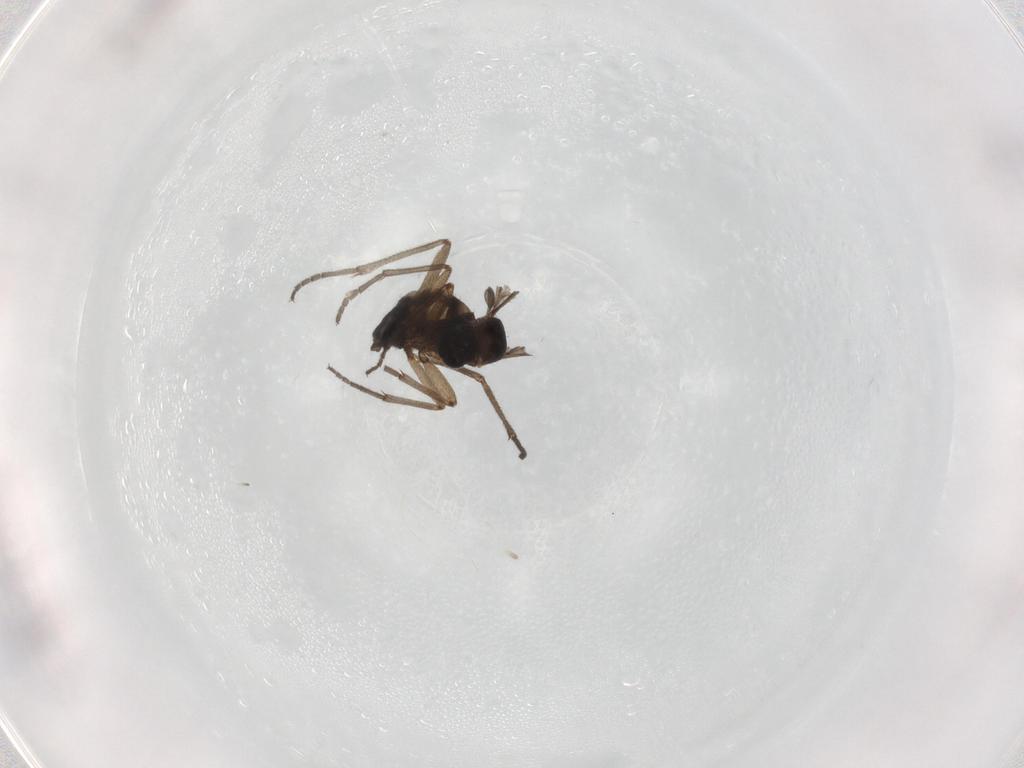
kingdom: Animalia
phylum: Arthropoda
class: Insecta
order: Diptera
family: Sciaridae
